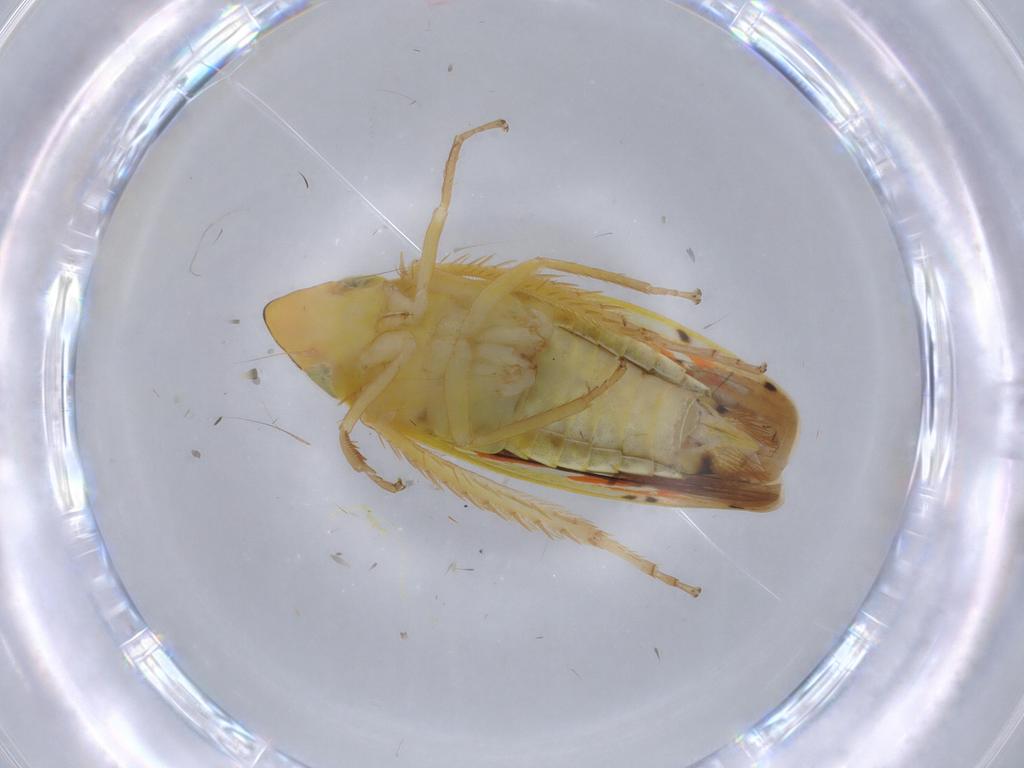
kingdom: Animalia
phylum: Arthropoda
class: Insecta
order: Hemiptera
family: Cicadellidae
